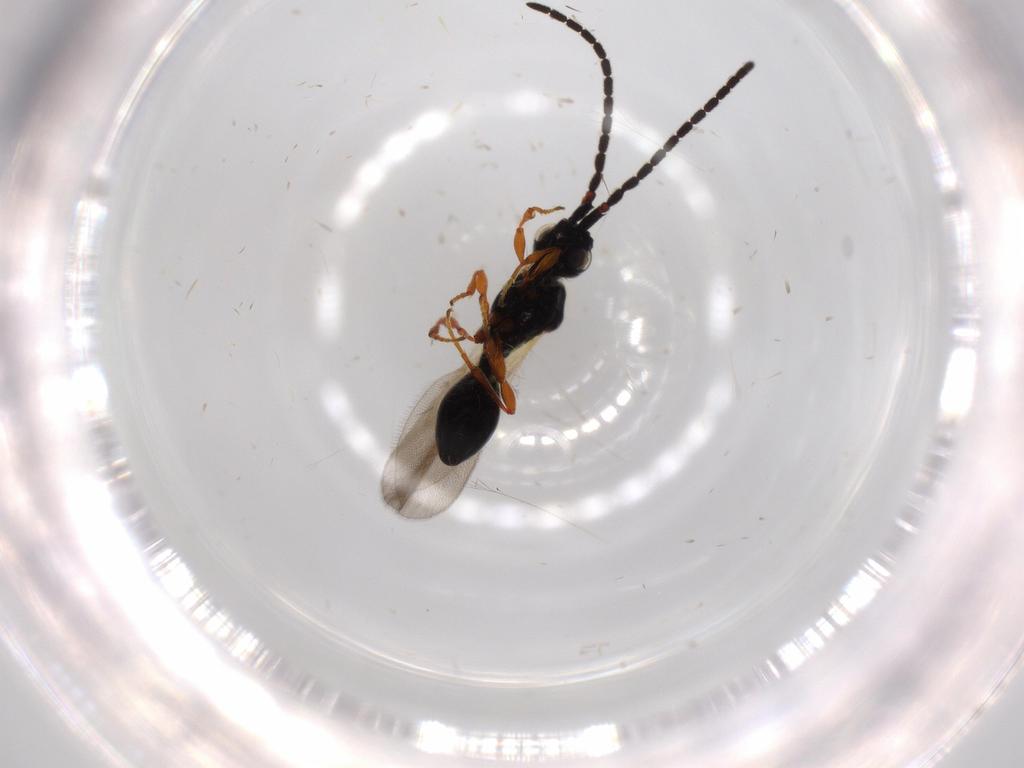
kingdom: Animalia
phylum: Arthropoda
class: Insecta
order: Hymenoptera
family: Diapriidae
